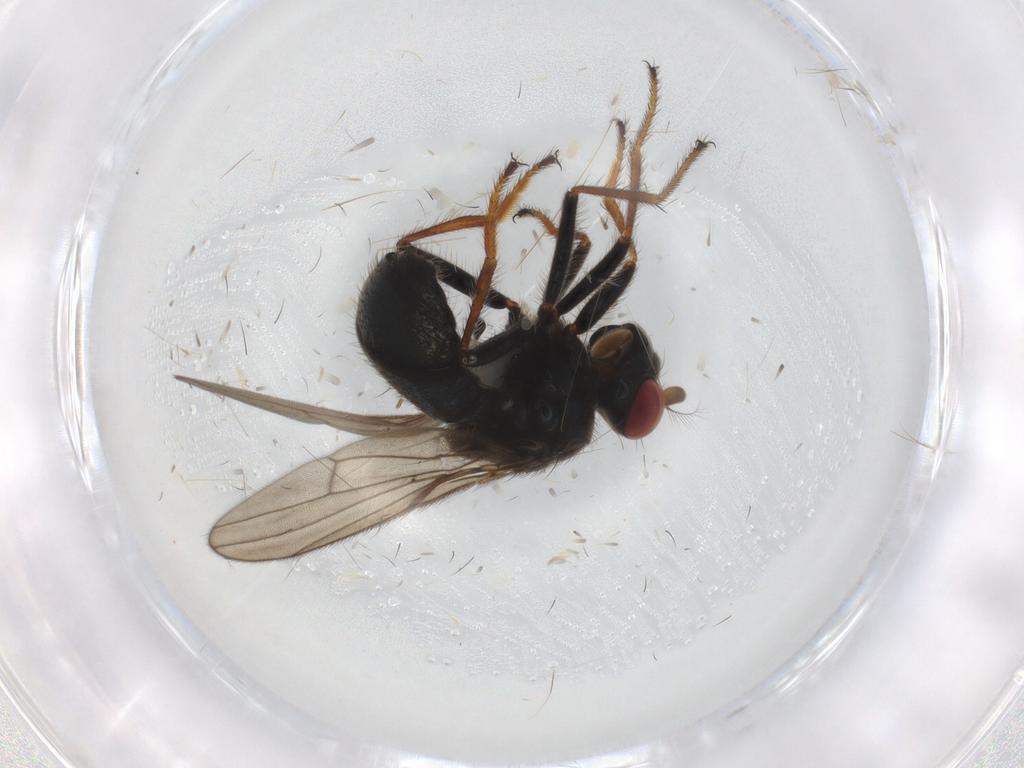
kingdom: Animalia
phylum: Arthropoda
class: Insecta
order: Diptera
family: Ephydridae
